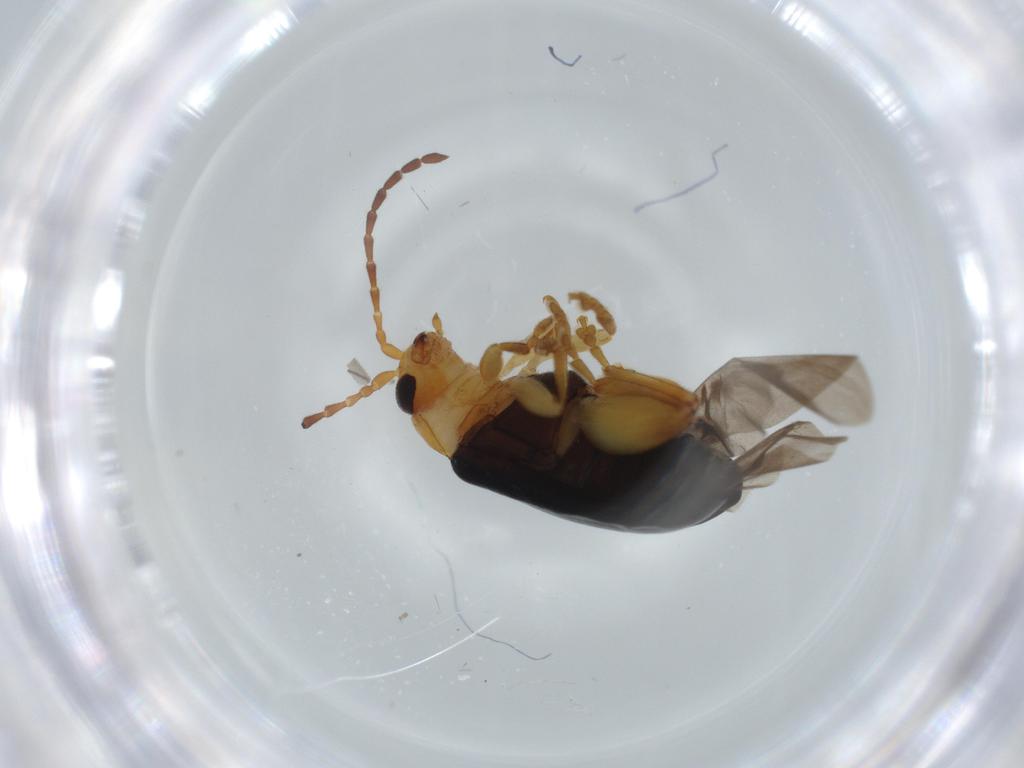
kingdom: Animalia
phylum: Arthropoda
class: Insecta
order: Coleoptera
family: Chrysomelidae
